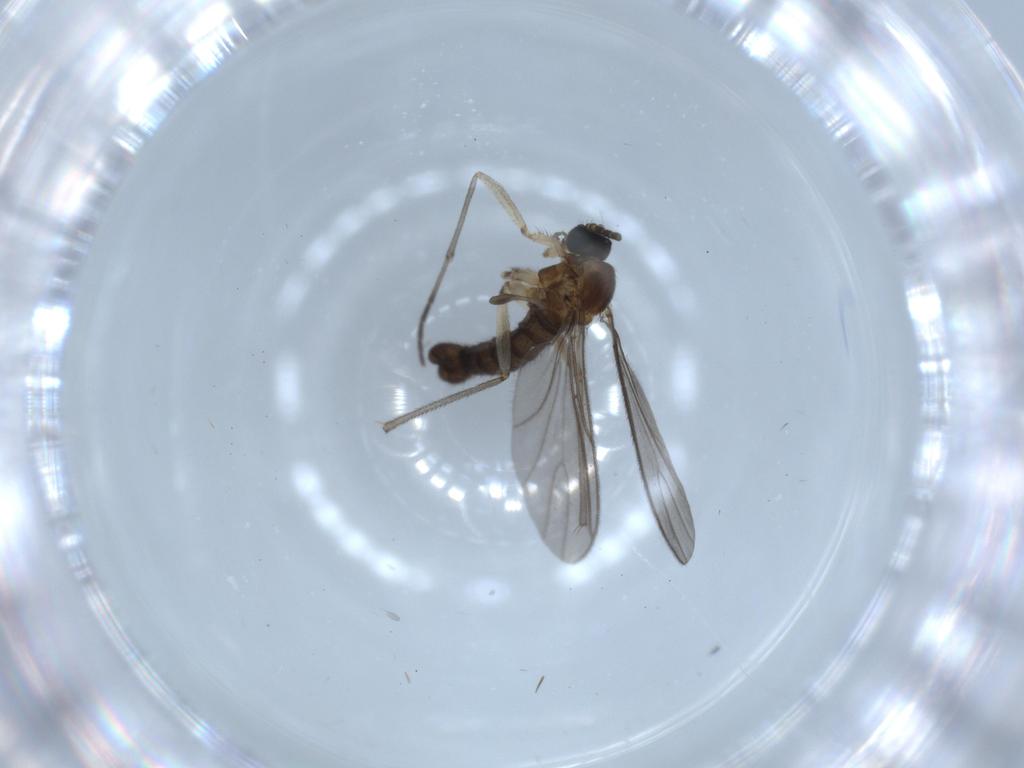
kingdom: Animalia
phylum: Arthropoda
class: Insecta
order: Diptera
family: Sciaridae
